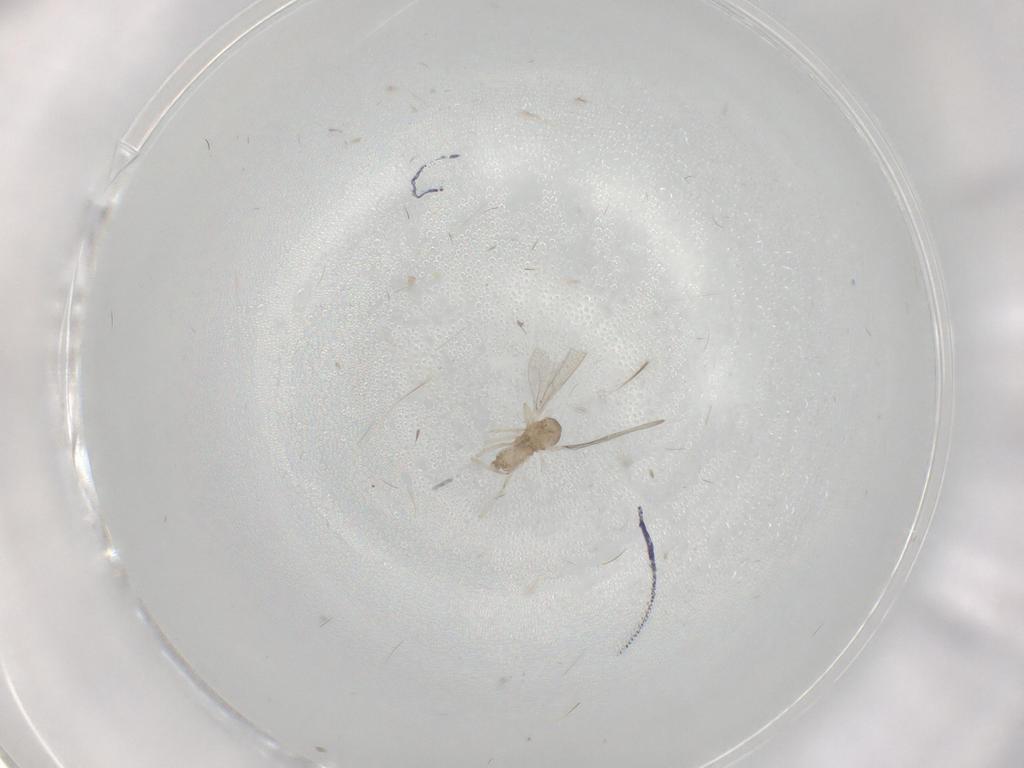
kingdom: Animalia
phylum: Arthropoda
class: Insecta
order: Diptera
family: Cecidomyiidae
